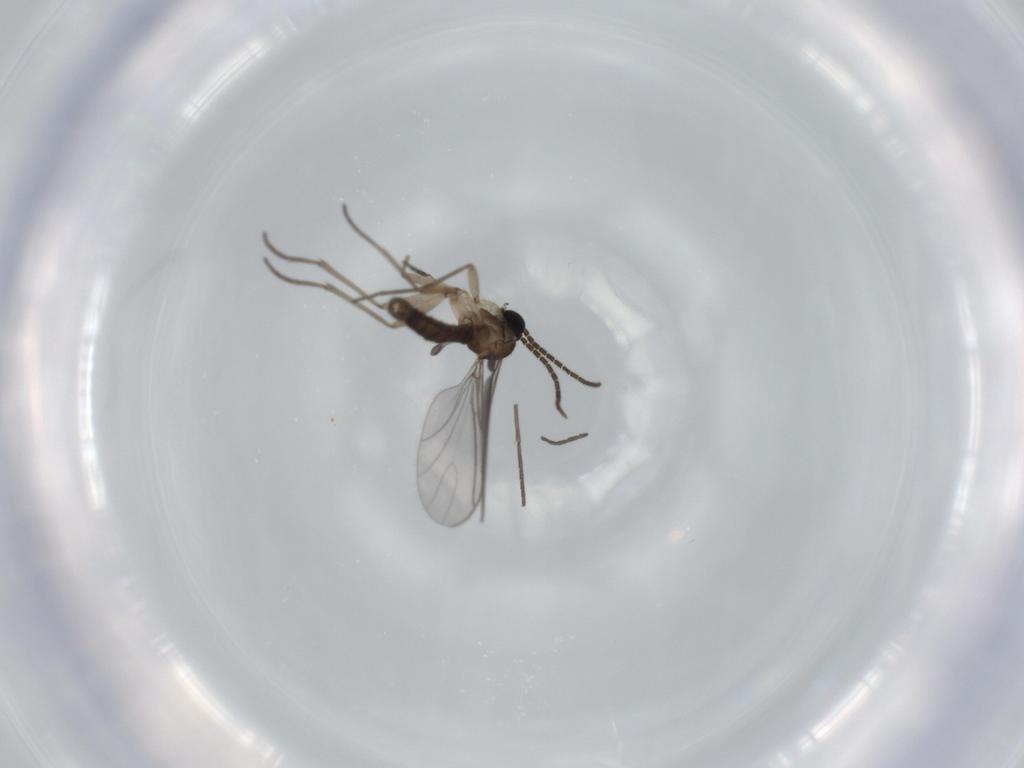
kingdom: Animalia
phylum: Arthropoda
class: Insecta
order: Diptera
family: Sciaridae
